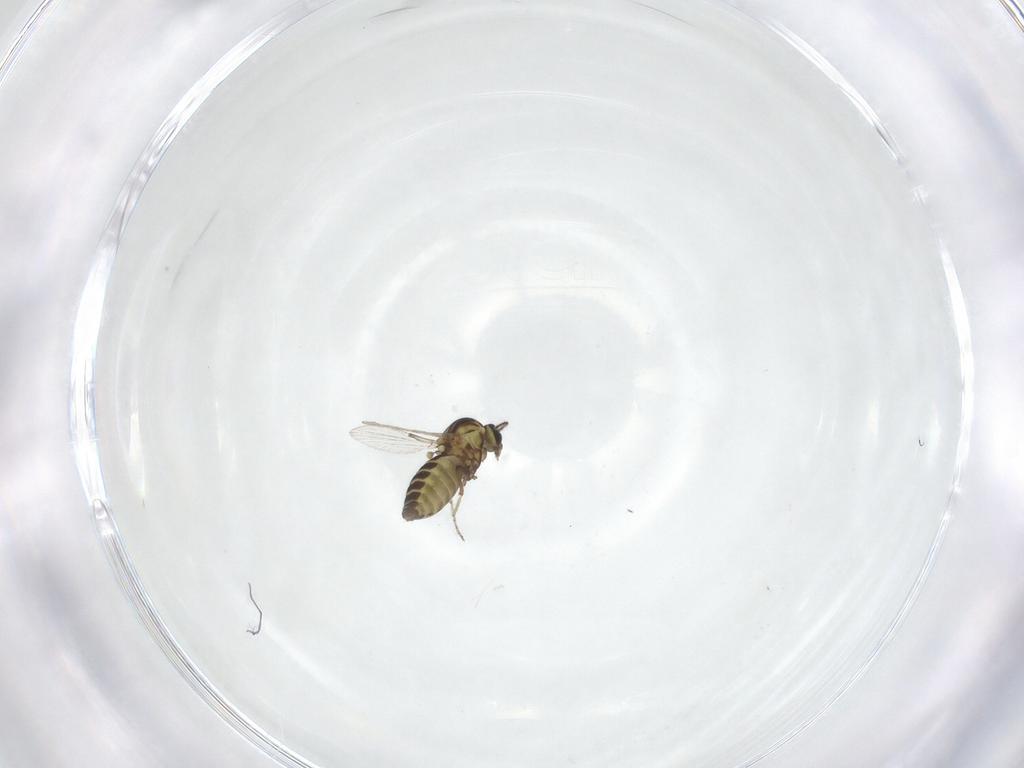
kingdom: Animalia
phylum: Arthropoda
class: Insecta
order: Diptera
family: Ceratopogonidae
